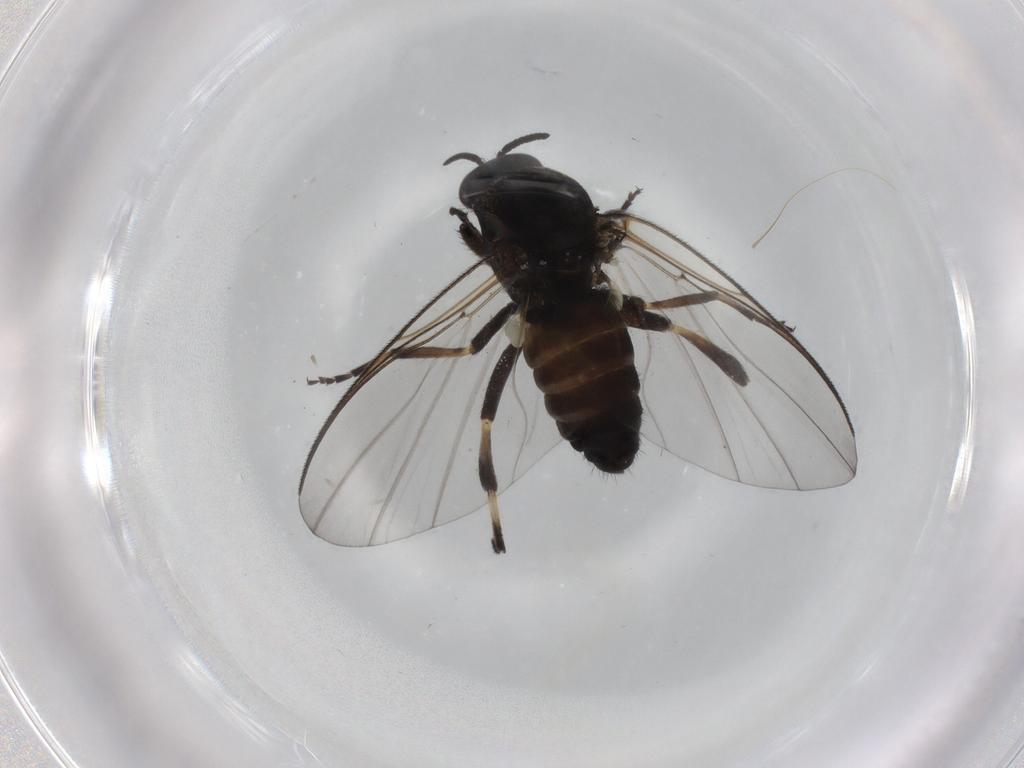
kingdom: Animalia
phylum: Arthropoda
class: Insecta
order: Diptera
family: Simuliidae
